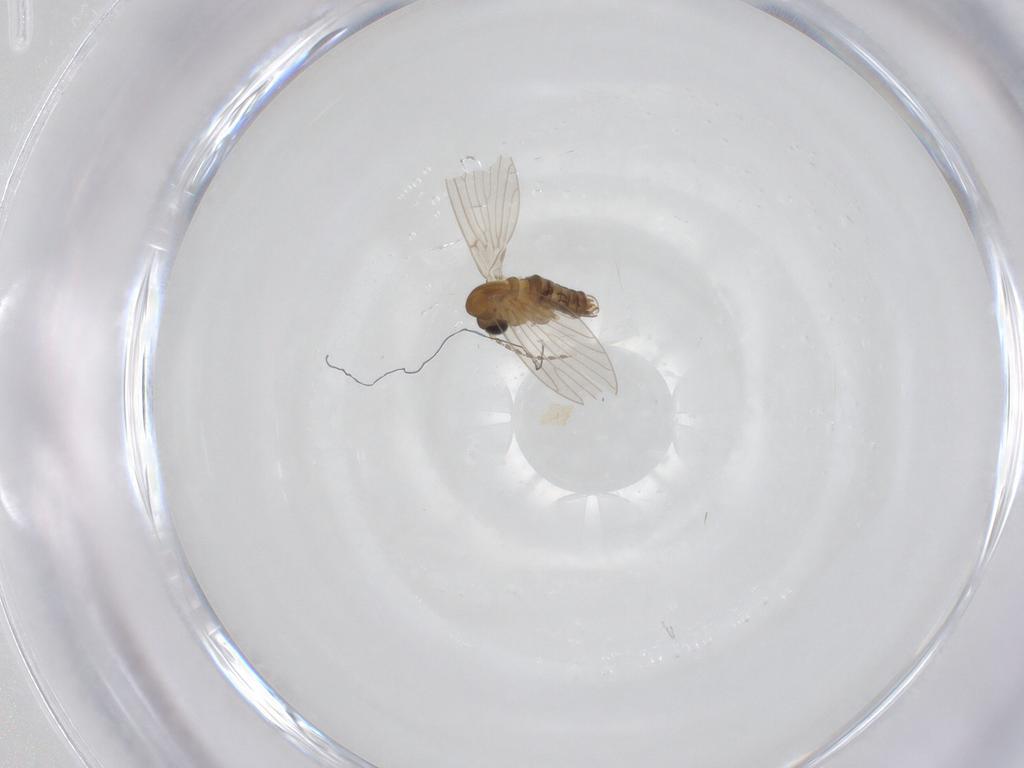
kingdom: Animalia
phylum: Arthropoda
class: Insecta
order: Diptera
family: Psychodidae
